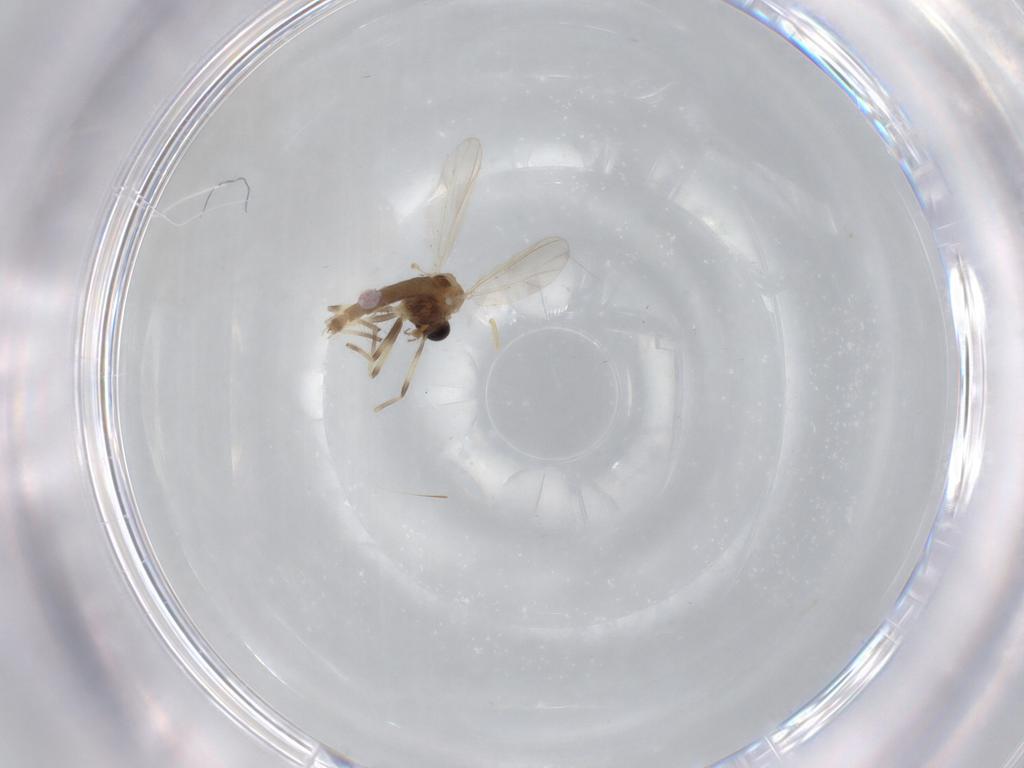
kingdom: Animalia
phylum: Arthropoda
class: Insecta
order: Diptera
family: Chironomidae
